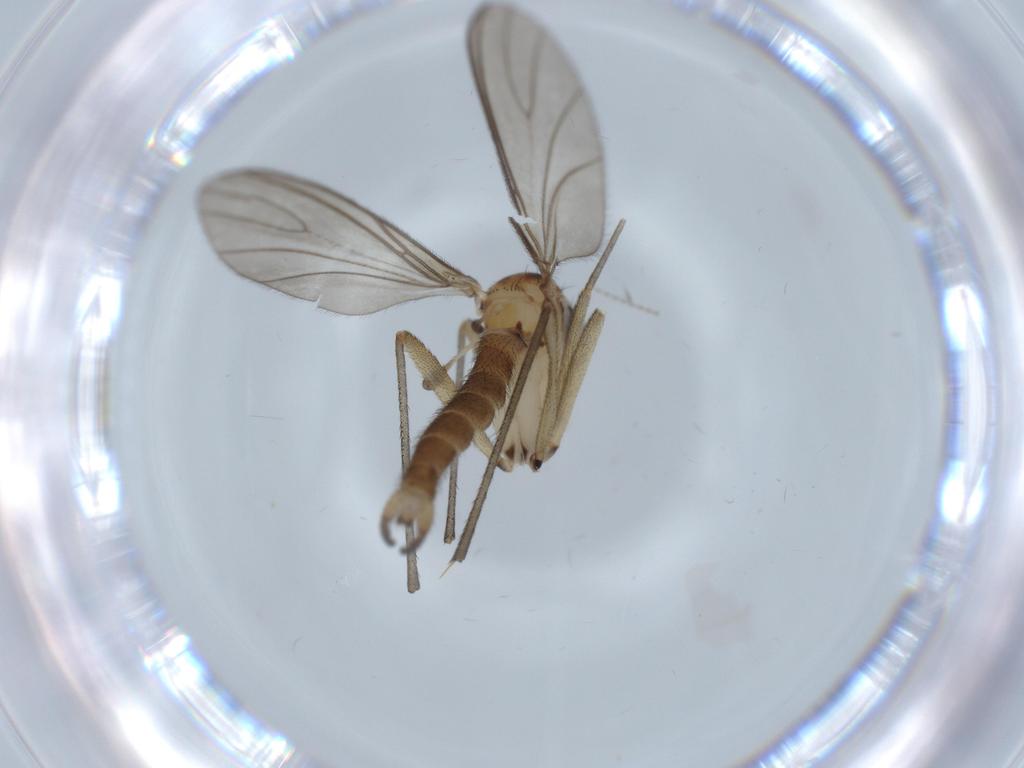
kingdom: Animalia
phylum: Arthropoda
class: Insecta
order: Diptera
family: Sciaridae
